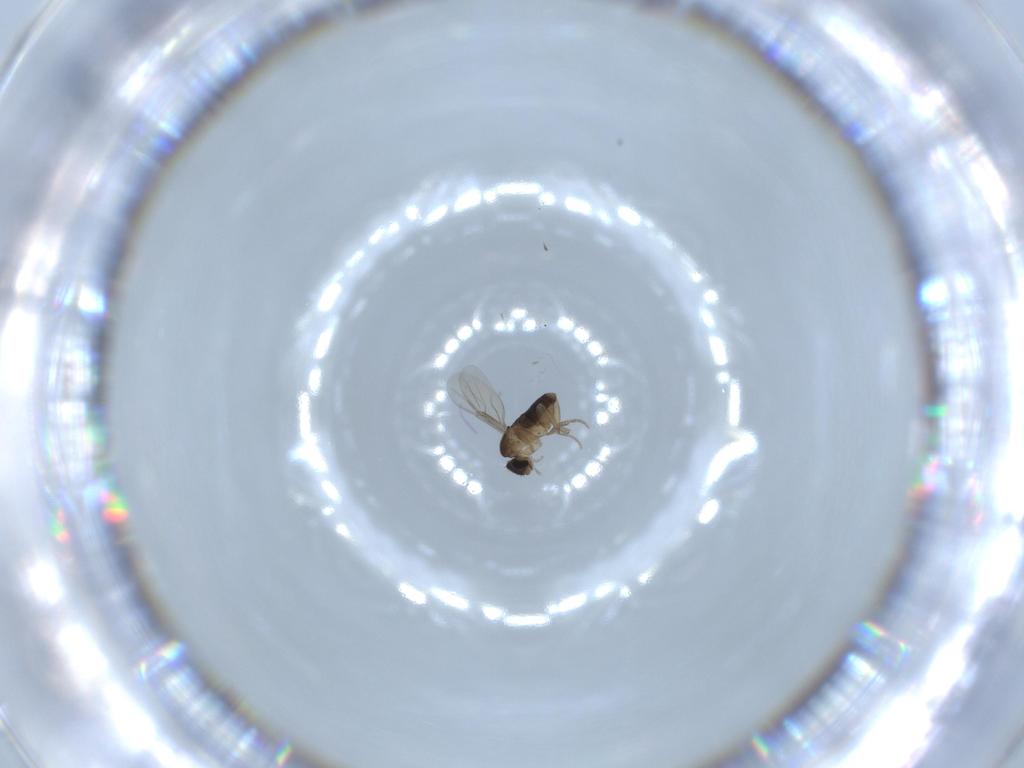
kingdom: Animalia
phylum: Arthropoda
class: Insecta
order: Diptera
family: Phoridae
